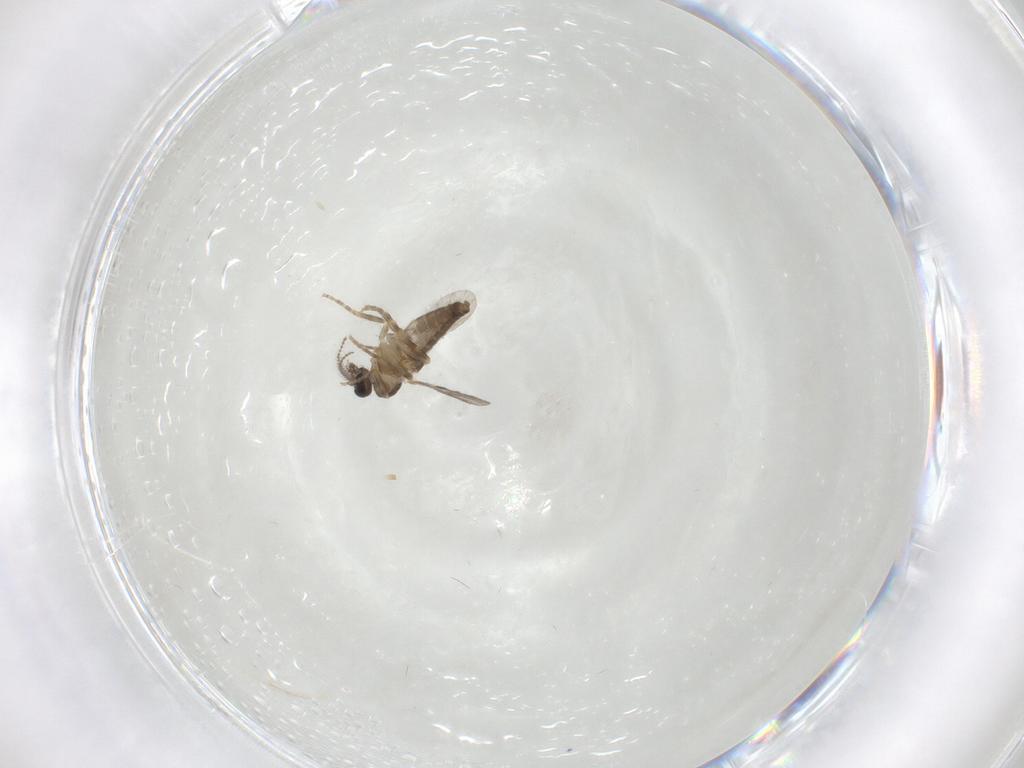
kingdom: Animalia
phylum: Arthropoda
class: Insecta
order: Diptera
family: Ceratopogonidae
